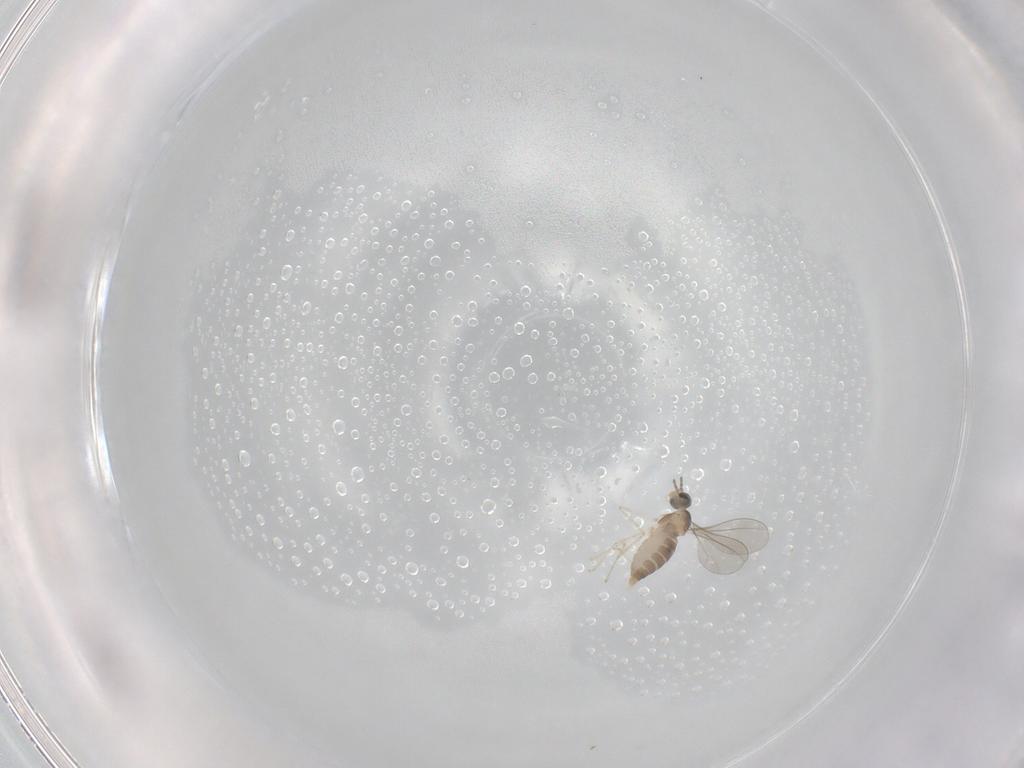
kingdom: Animalia
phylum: Arthropoda
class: Insecta
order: Diptera
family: Cecidomyiidae
